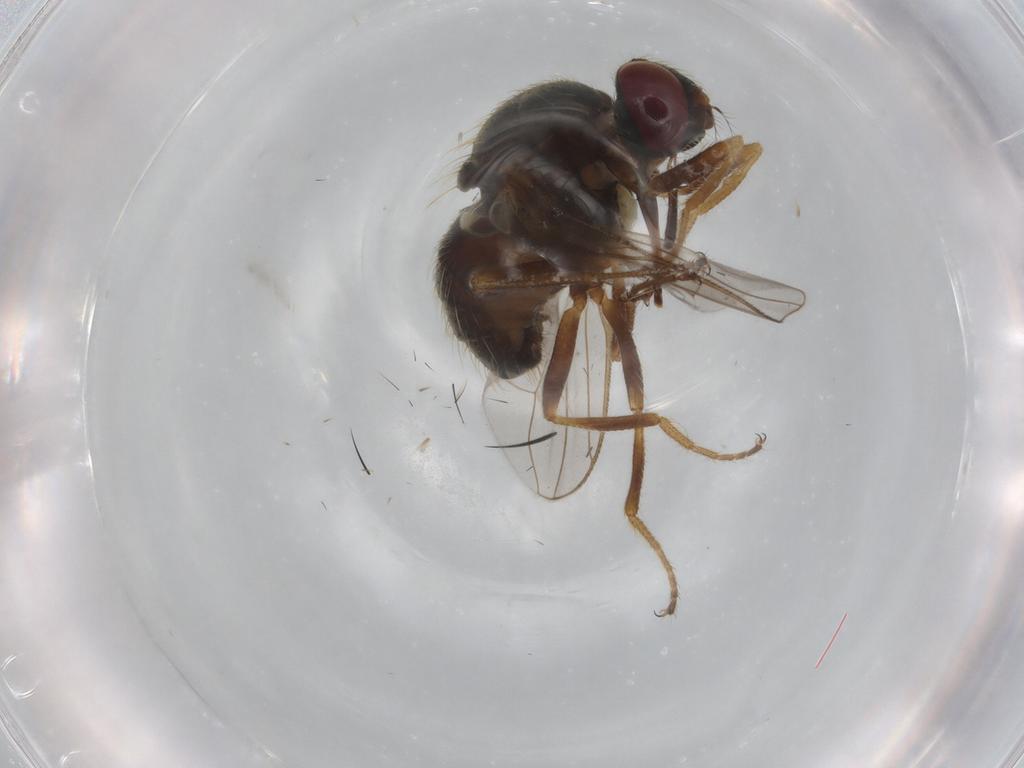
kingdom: Animalia
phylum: Arthropoda
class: Insecta
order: Diptera
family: Muscidae
